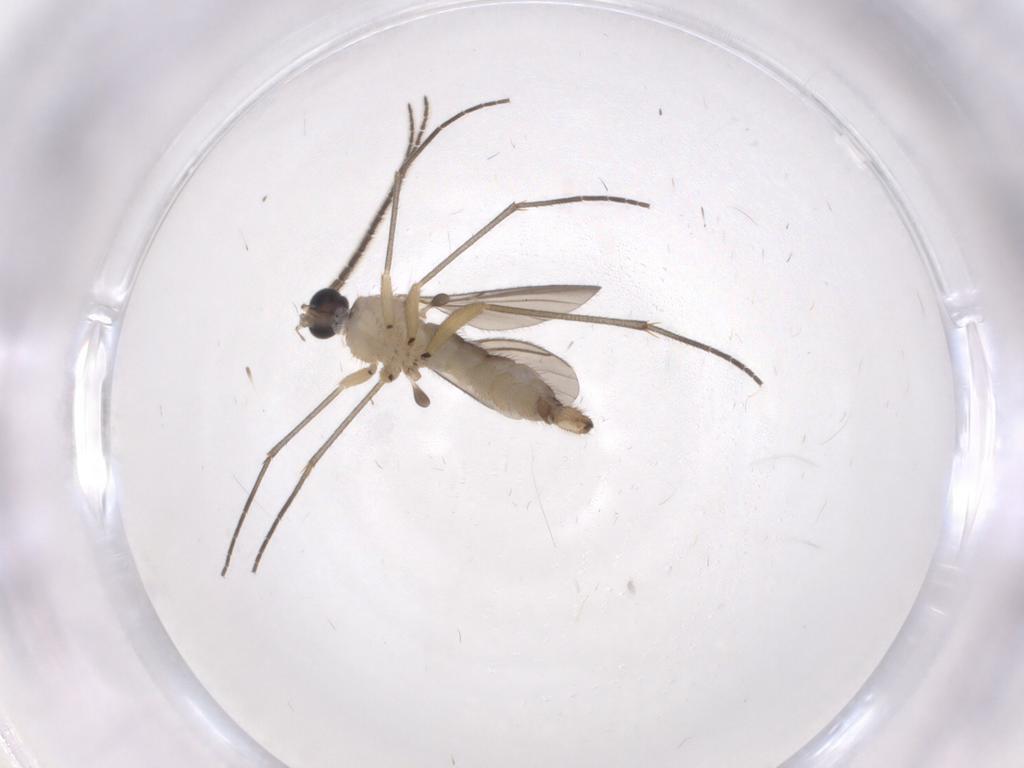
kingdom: Animalia
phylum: Arthropoda
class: Insecta
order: Diptera
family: Sciaridae
